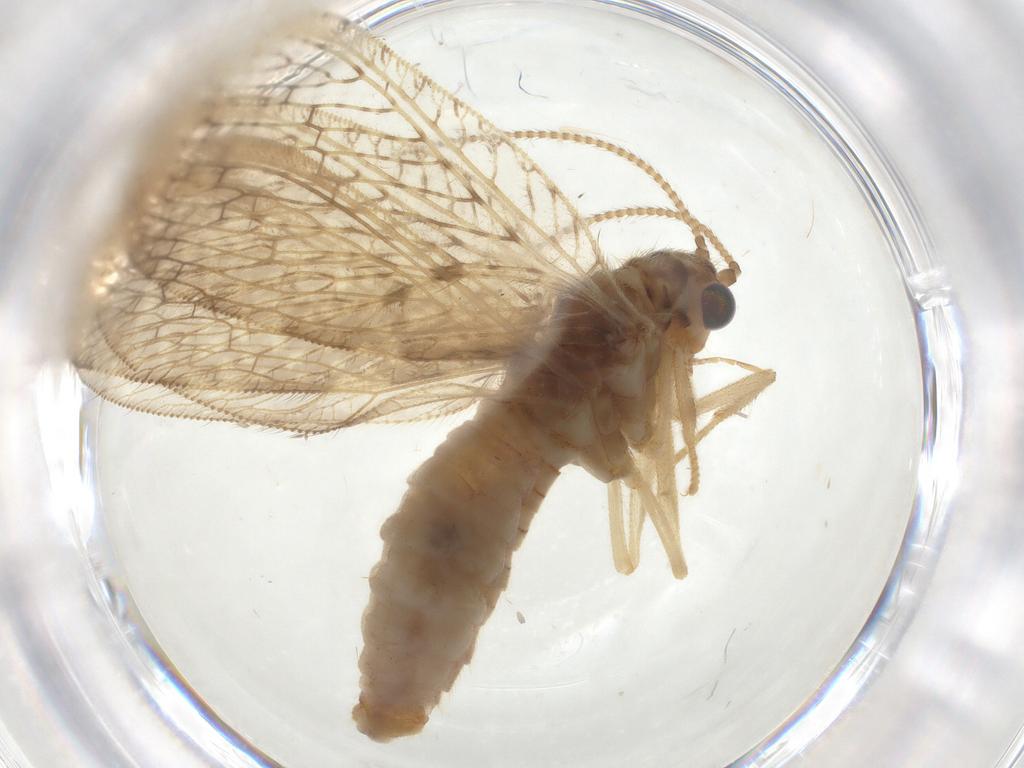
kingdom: Animalia
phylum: Arthropoda
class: Insecta
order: Neuroptera
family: Hemerobiidae
